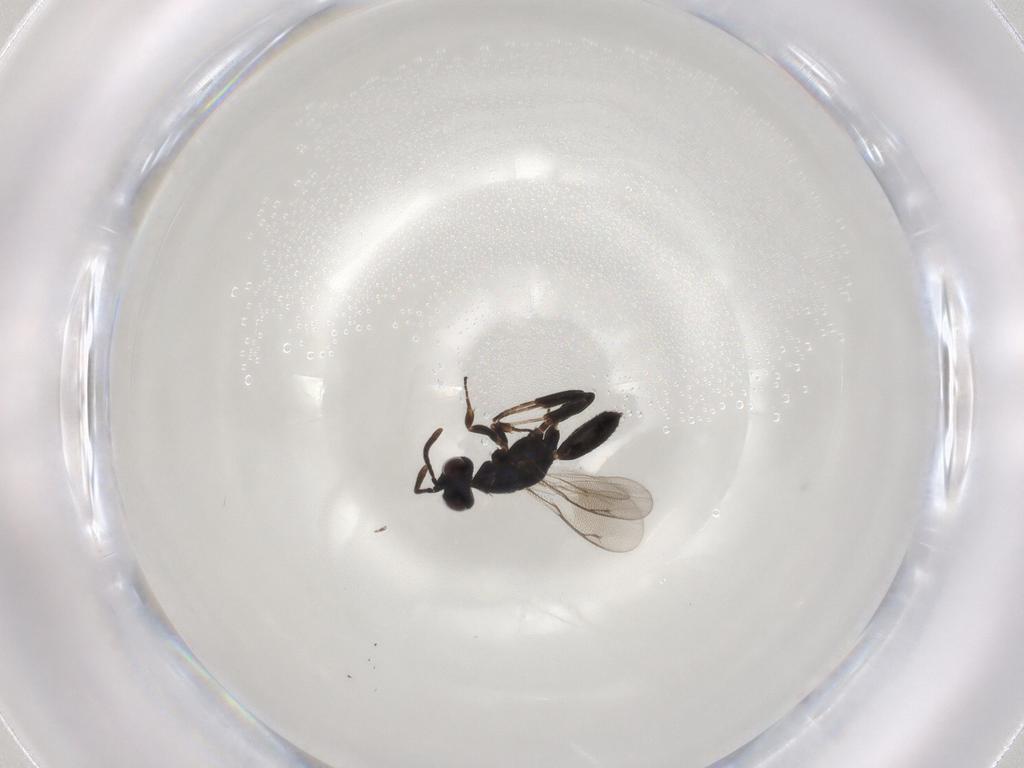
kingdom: Animalia
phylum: Arthropoda
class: Insecta
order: Hymenoptera
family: Eupelmidae
